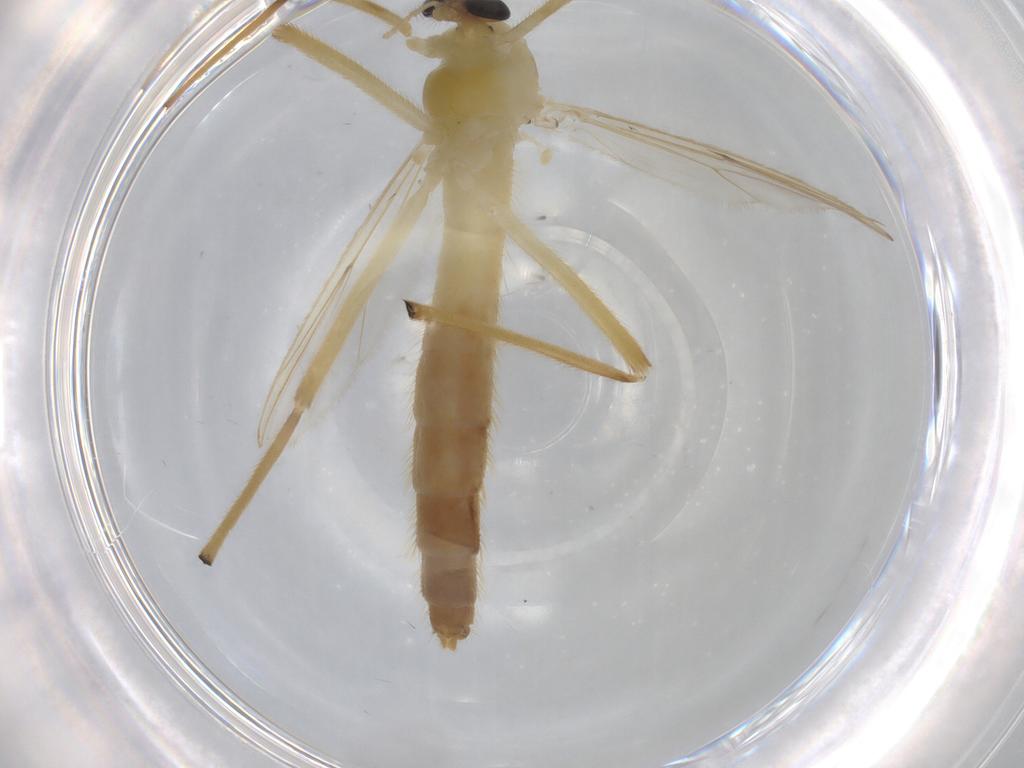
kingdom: Animalia
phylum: Arthropoda
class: Insecta
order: Diptera
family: Chironomidae
